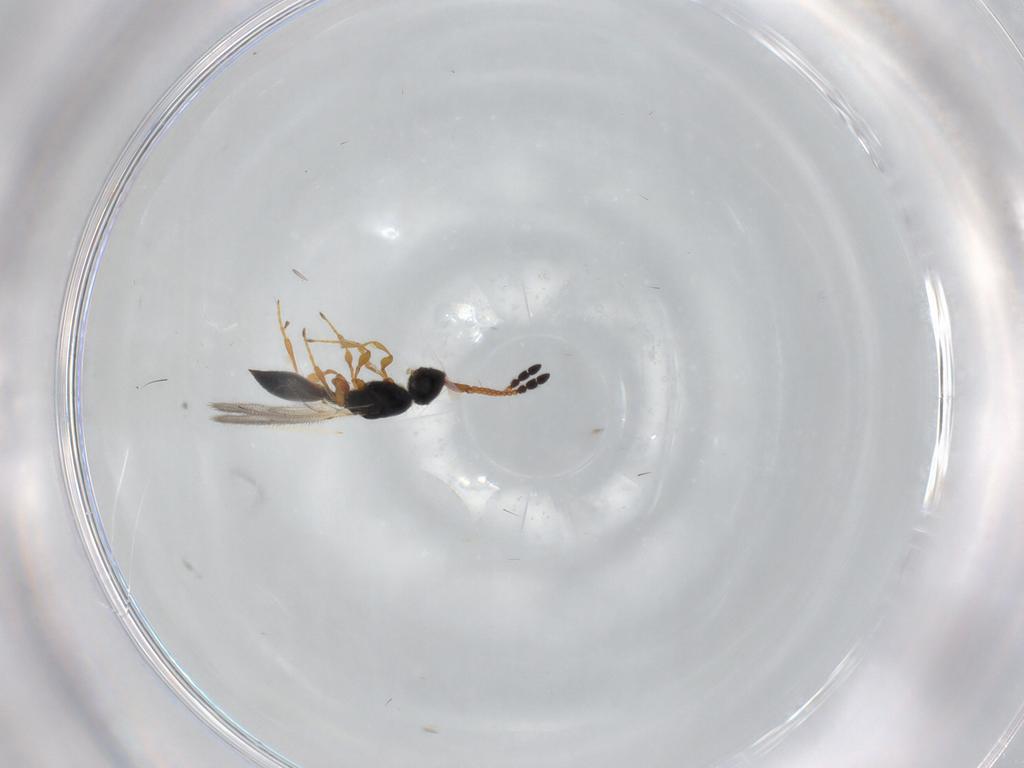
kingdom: Animalia
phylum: Arthropoda
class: Insecta
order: Hymenoptera
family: Diapriidae
